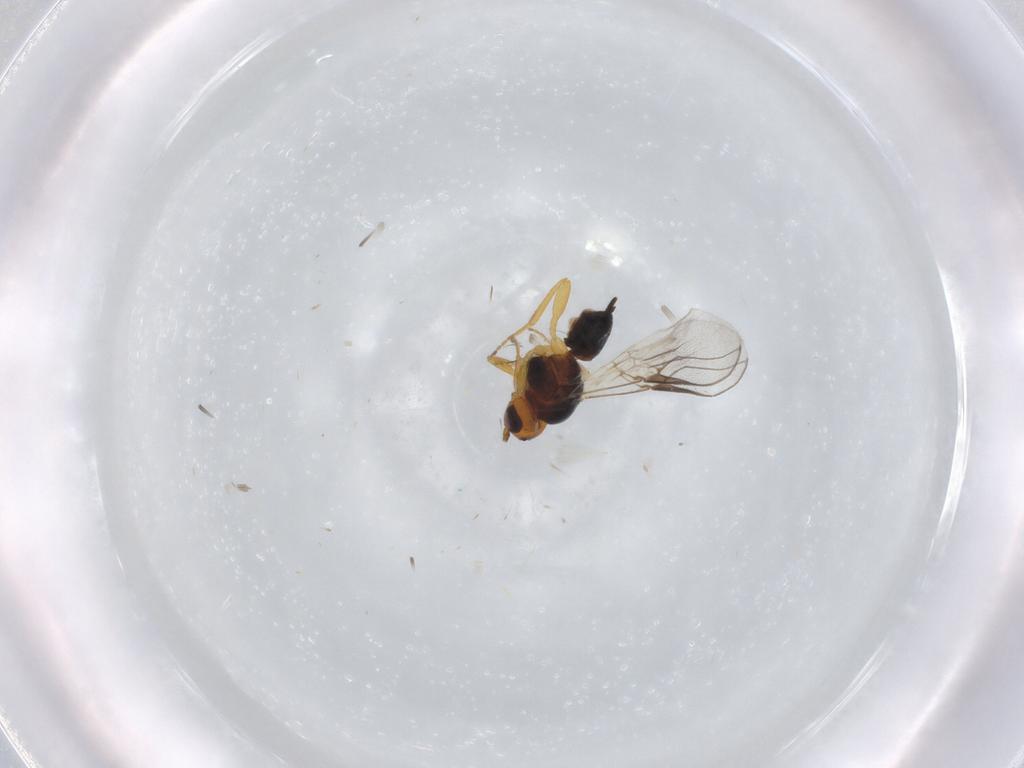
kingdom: Animalia
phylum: Arthropoda
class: Insecta
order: Hymenoptera
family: Braconidae
